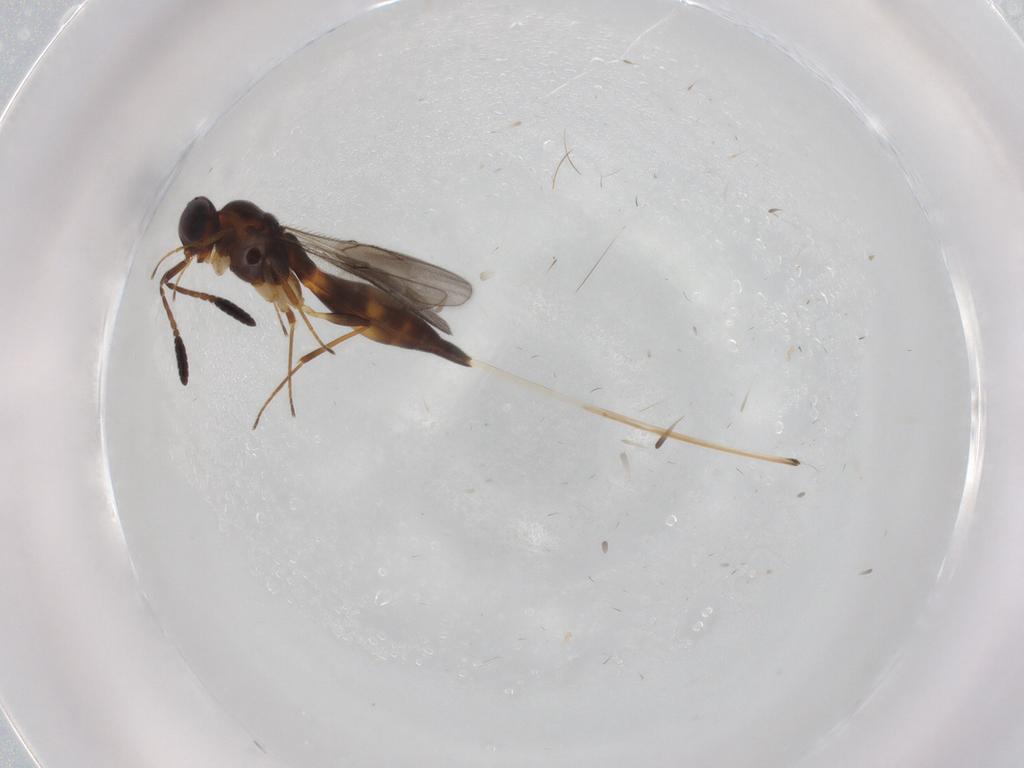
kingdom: Animalia
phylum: Arthropoda
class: Insecta
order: Hymenoptera
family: Scelionidae
